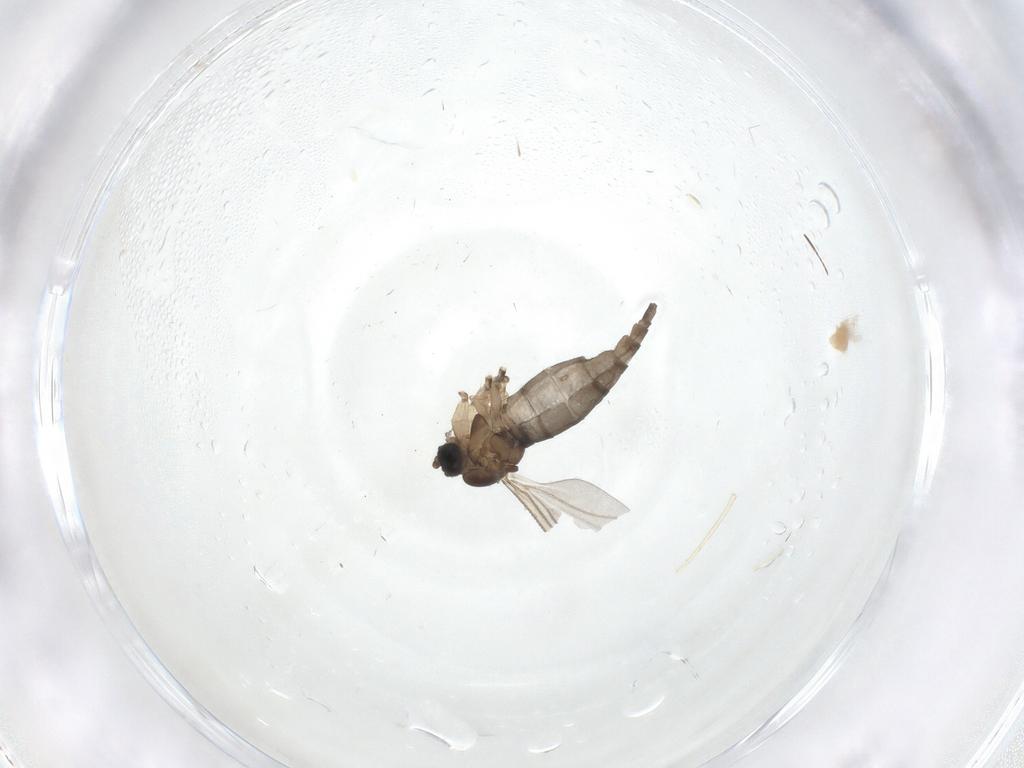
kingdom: Animalia
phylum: Arthropoda
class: Insecta
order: Diptera
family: Sciaridae
